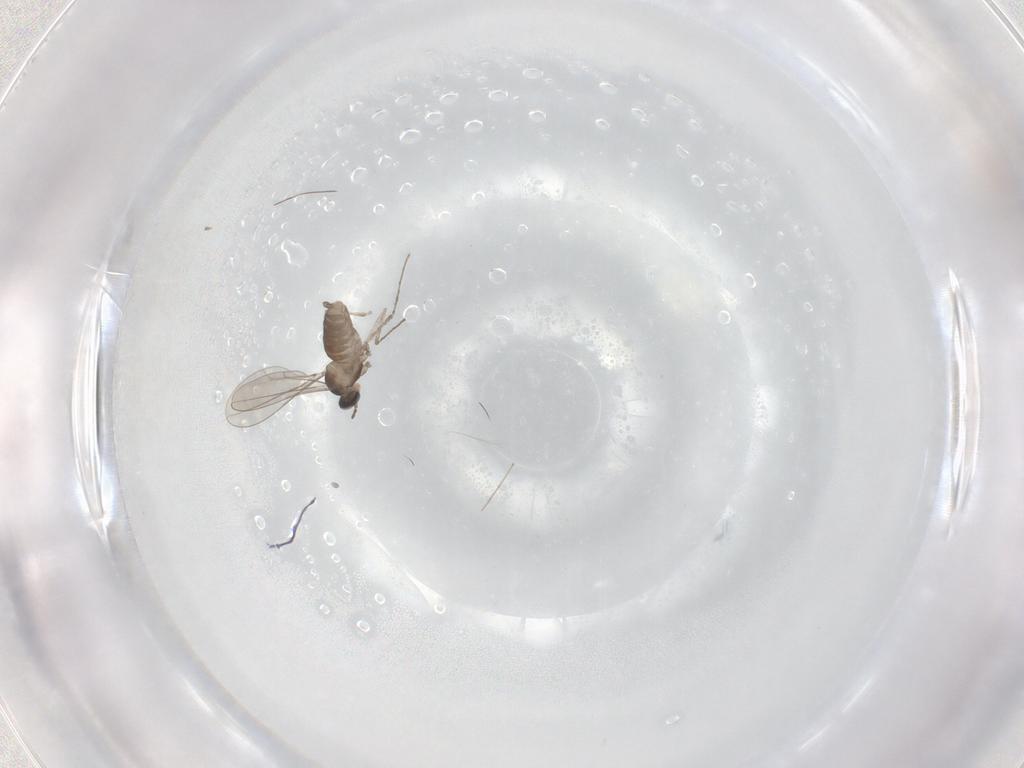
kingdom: Animalia
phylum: Arthropoda
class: Insecta
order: Diptera
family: Cecidomyiidae
